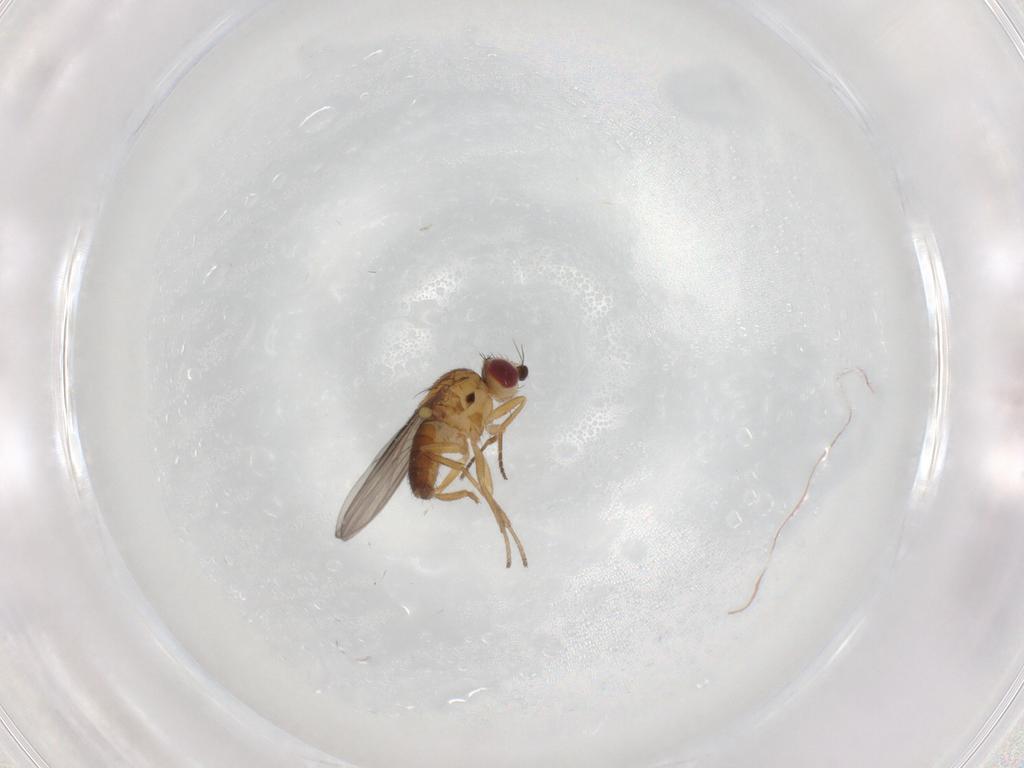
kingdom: Animalia
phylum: Arthropoda
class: Insecta
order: Diptera
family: Chloropidae
